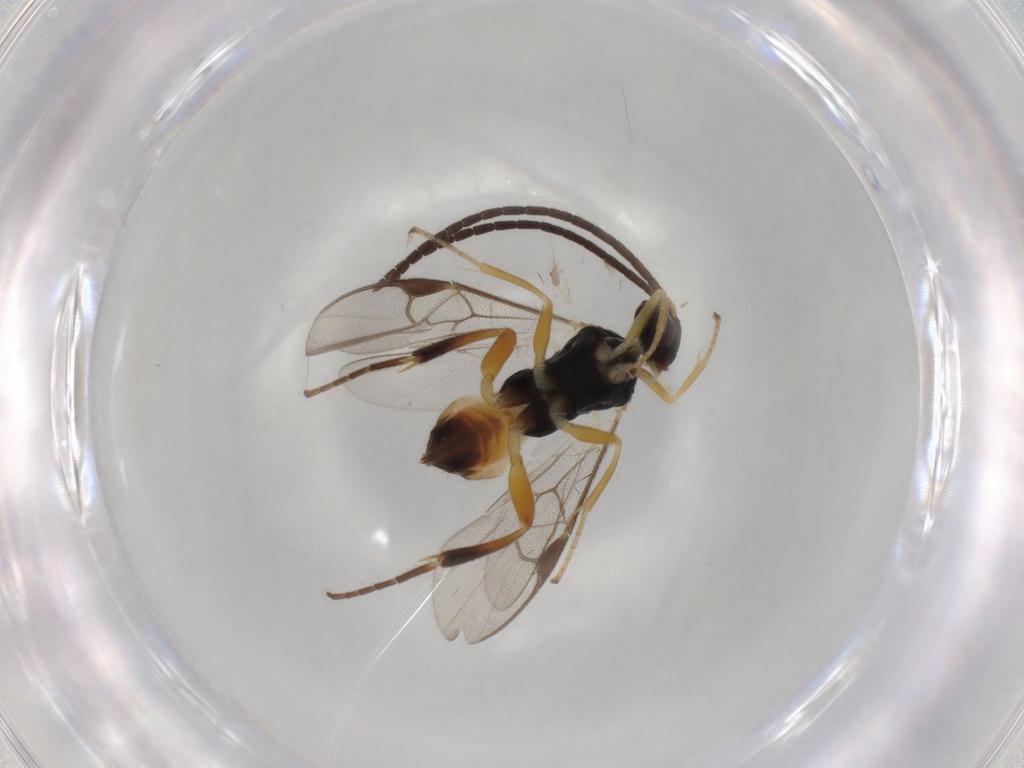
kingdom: Animalia
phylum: Arthropoda
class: Insecta
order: Hymenoptera
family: Braconidae
